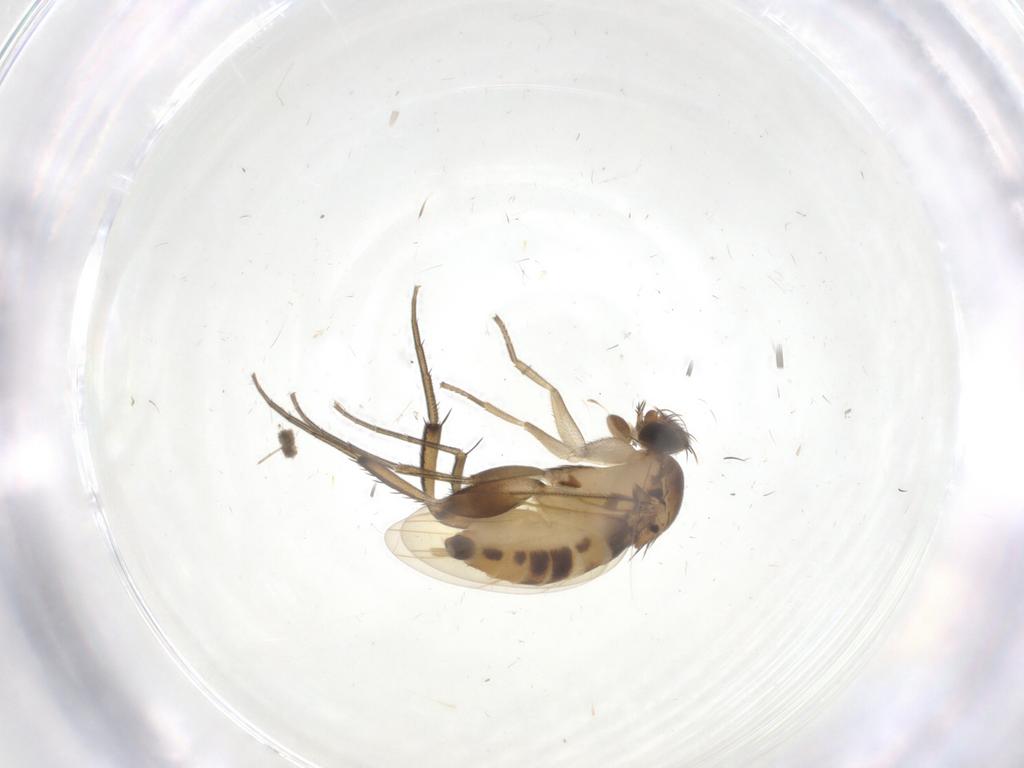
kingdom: Animalia
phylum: Arthropoda
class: Insecta
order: Diptera
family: Phoridae
